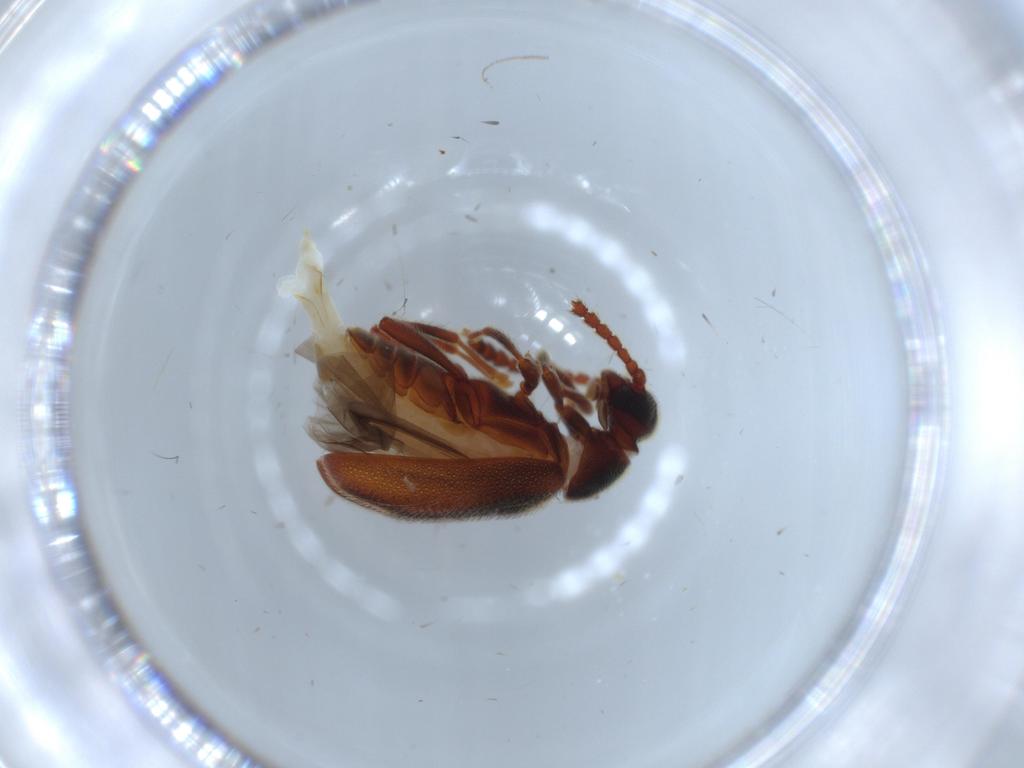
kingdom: Animalia
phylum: Arthropoda
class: Insecta
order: Coleoptera
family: Aderidae
